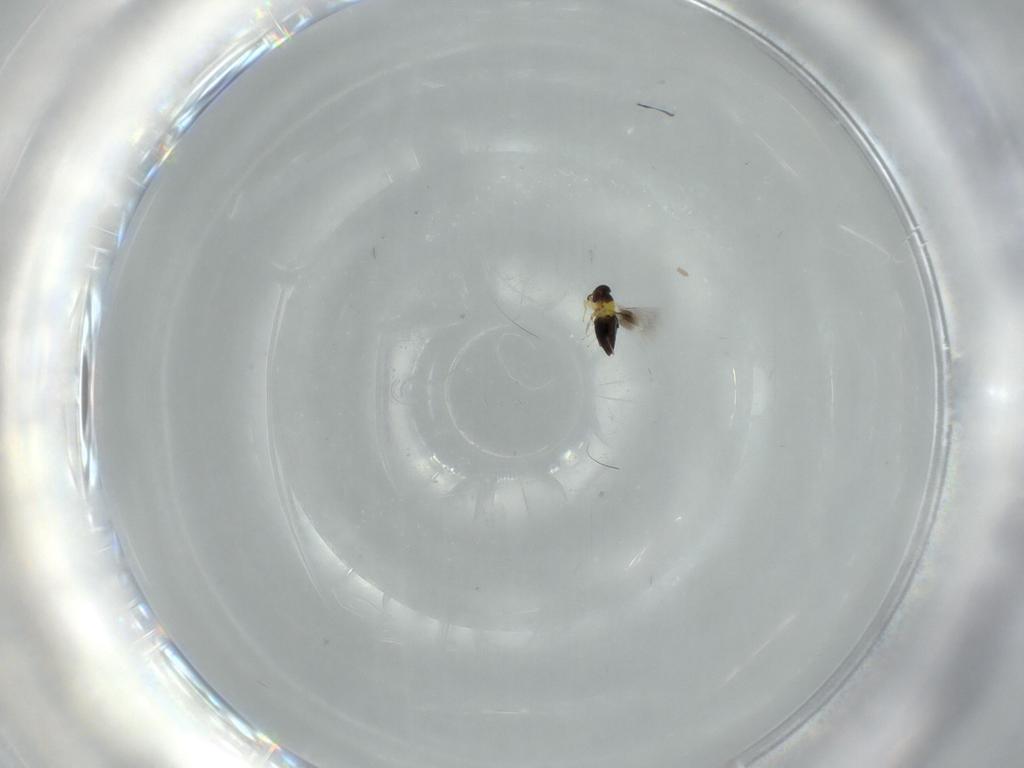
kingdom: Animalia
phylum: Arthropoda
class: Insecta
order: Hymenoptera
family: Signiphoridae
